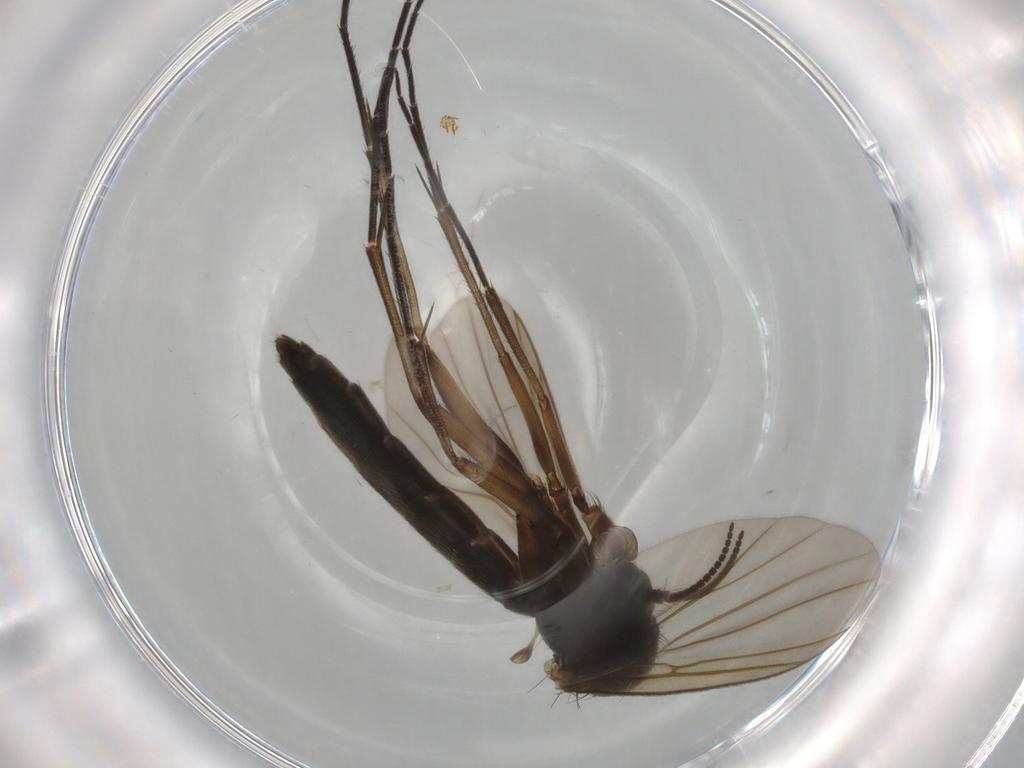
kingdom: Animalia
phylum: Arthropoda
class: Insecta
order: Diptera
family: Mycetophilidae
